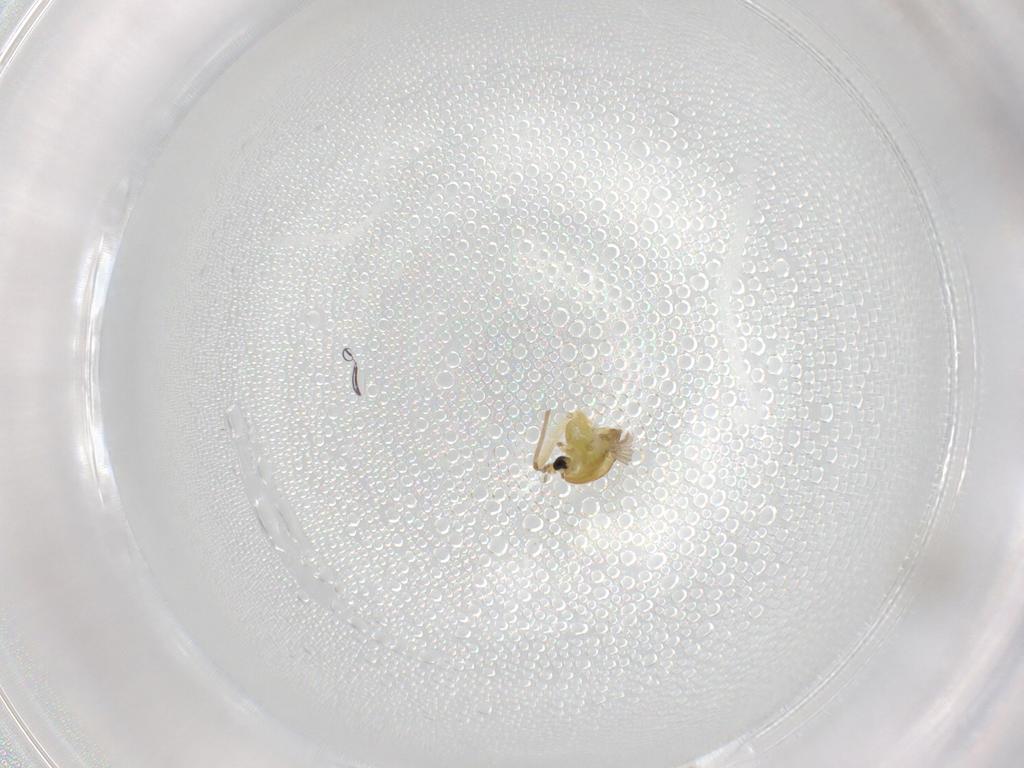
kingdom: Animalia
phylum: Arthropoda
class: Insecta
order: Diptera
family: Chironomidae
